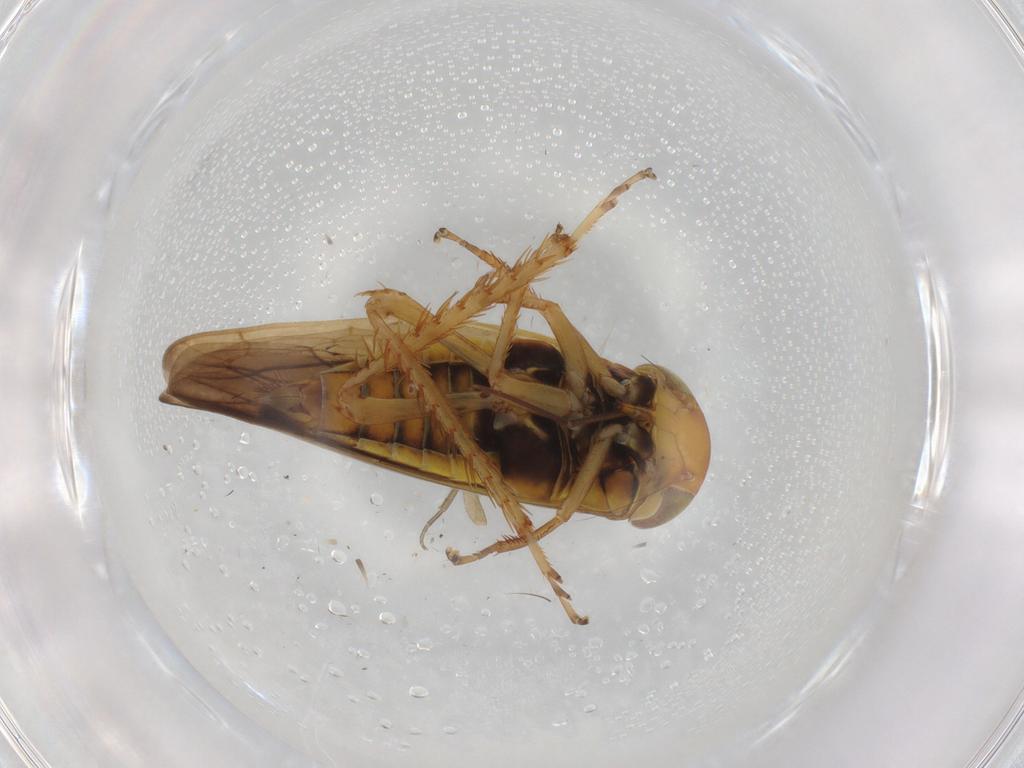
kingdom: Animalia
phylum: Arthropoda
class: Insecta
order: Hemiptera
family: Cicadellidae
